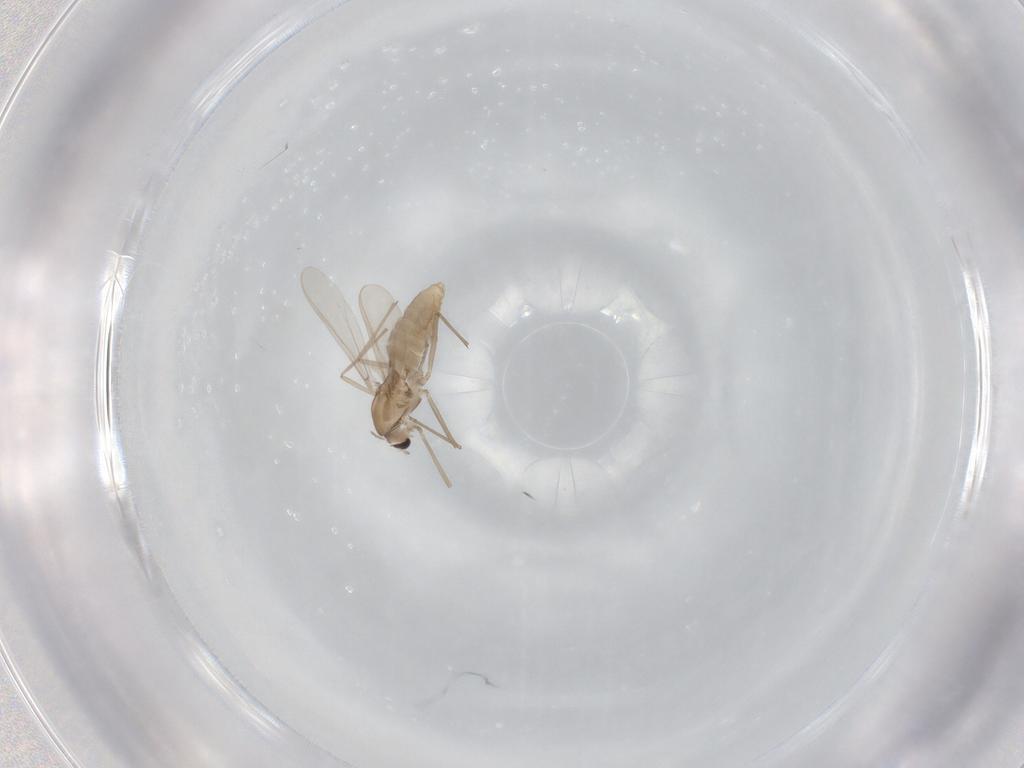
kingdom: Animalia
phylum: Arthropoda
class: Insecta
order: Diptera
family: Chironomidae
